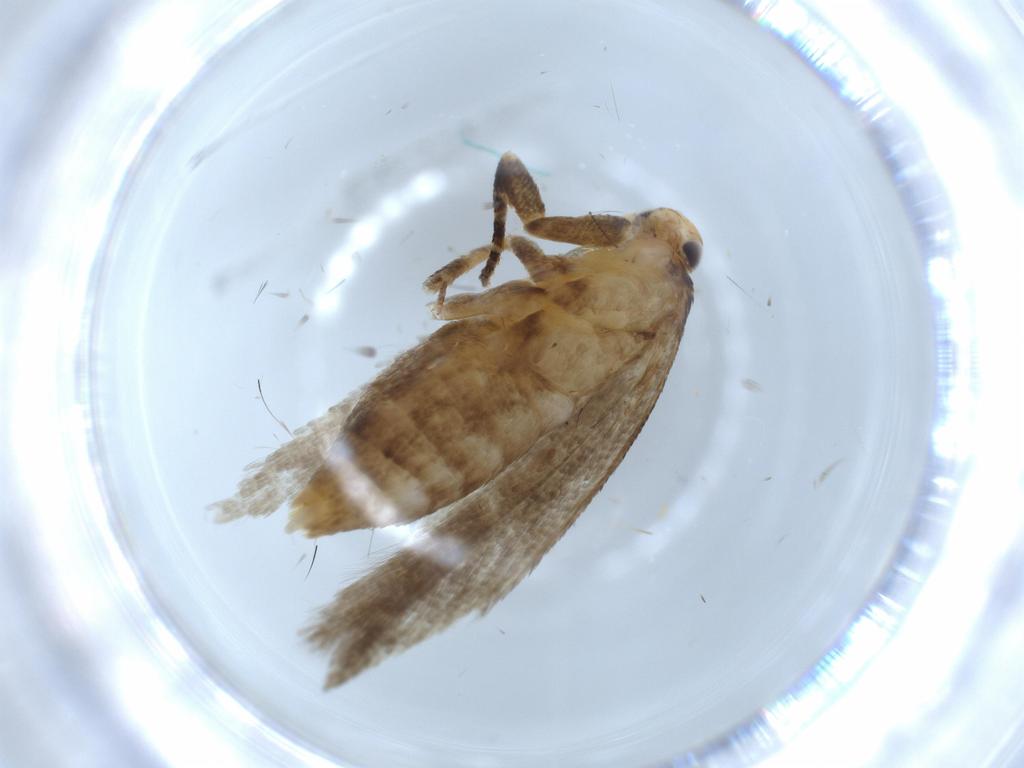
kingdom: Animalia
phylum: Arthropoda
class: Insecta
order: Lepidoptera
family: Gelechiidae
